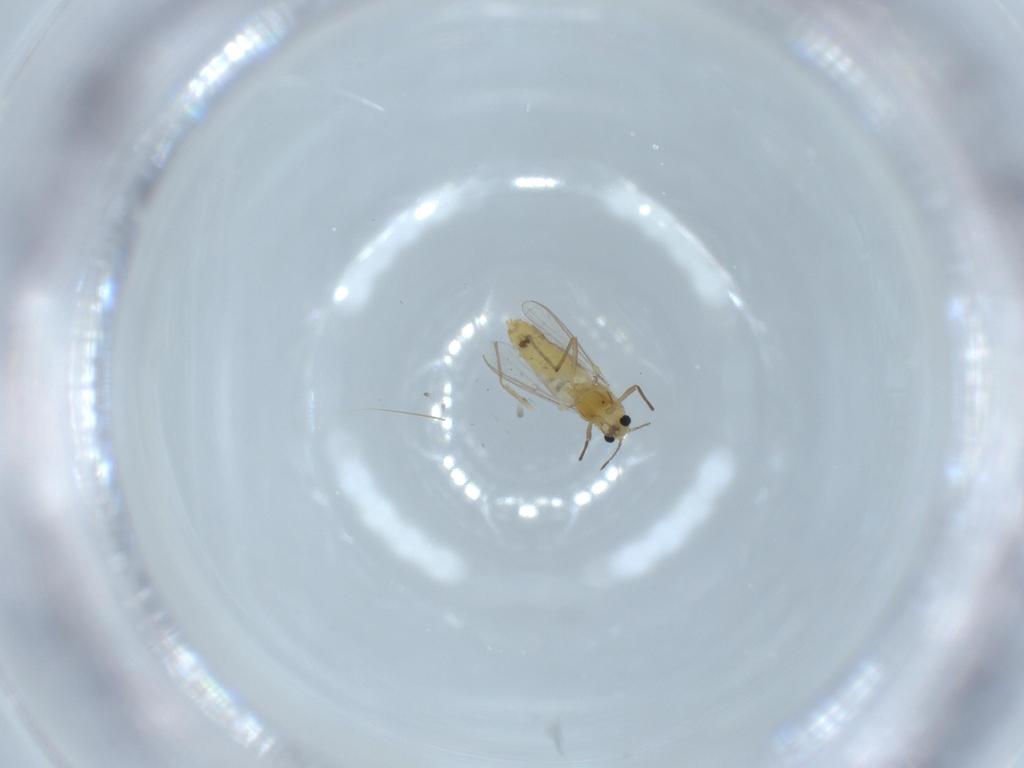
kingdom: Animalia
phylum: Arthropoda
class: Insecta
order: Diptera
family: Chironomidae
